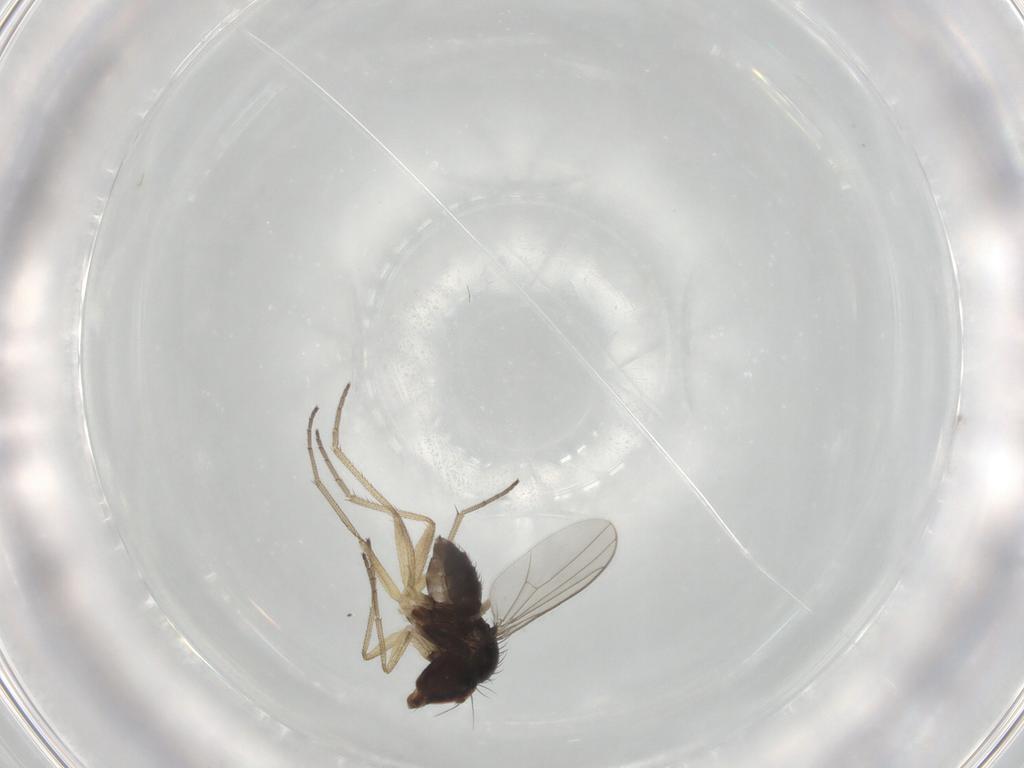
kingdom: Animalia
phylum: Arthropoda
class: Insecta
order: Diptera
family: Dolichopodidae
